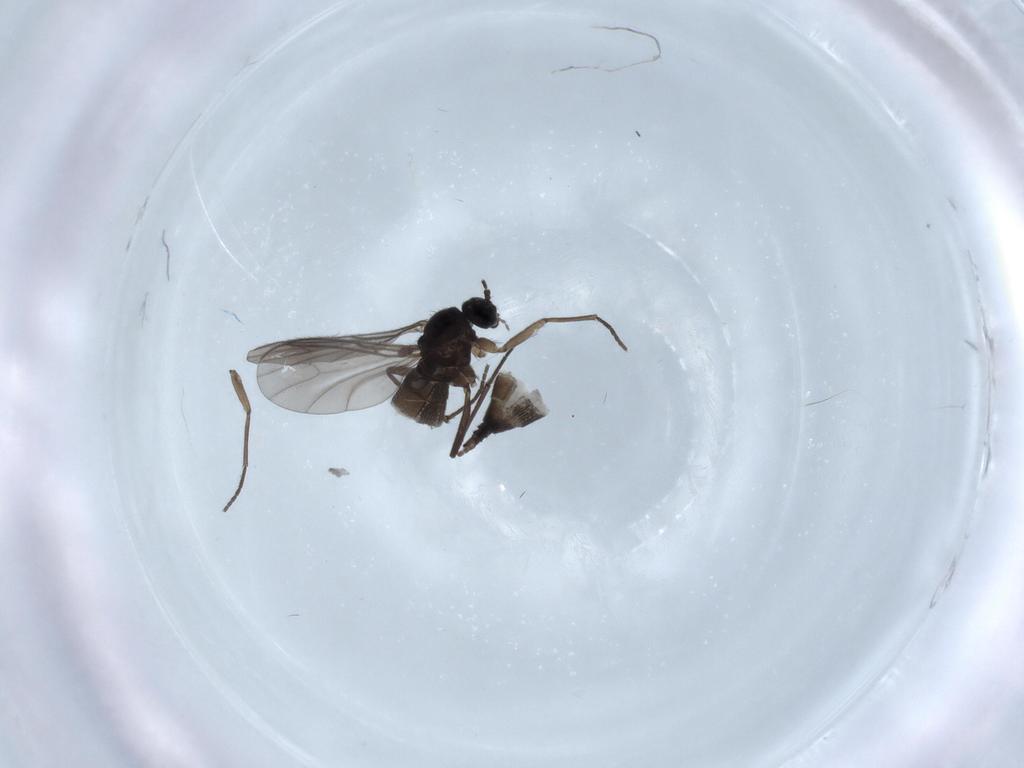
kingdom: Animalia
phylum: Arthropoda
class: Insecta
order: Diptera
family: Sciaridae
